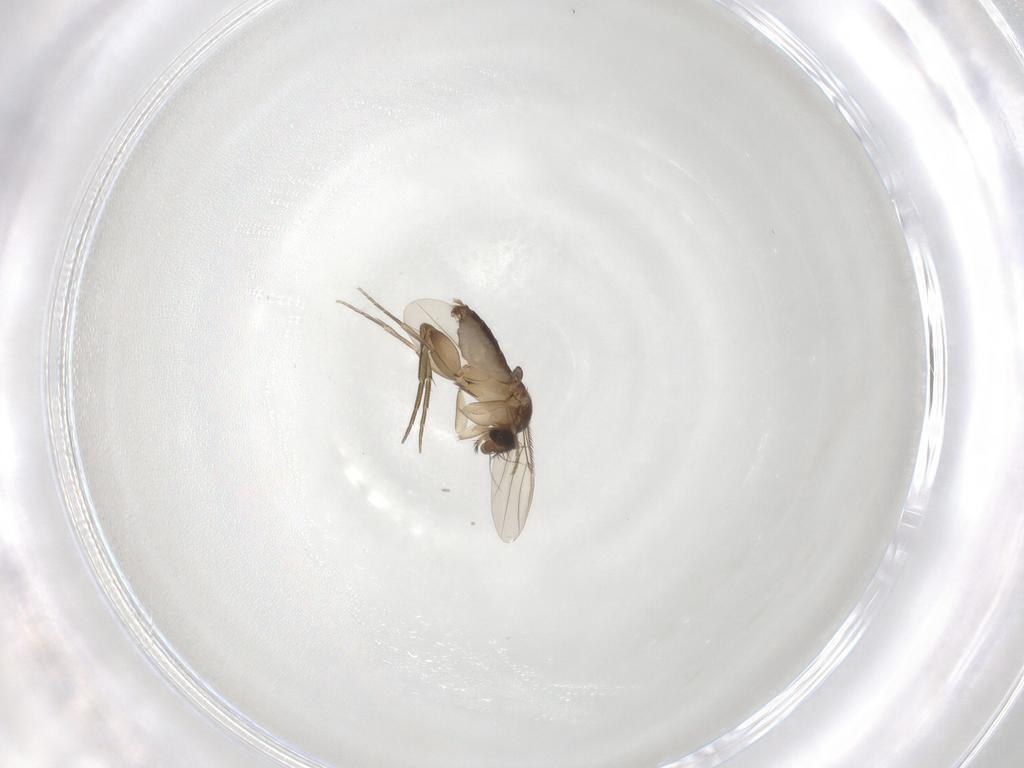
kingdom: Animalia
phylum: Arthropoda
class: Insecta
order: Diptera
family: Phoridae
